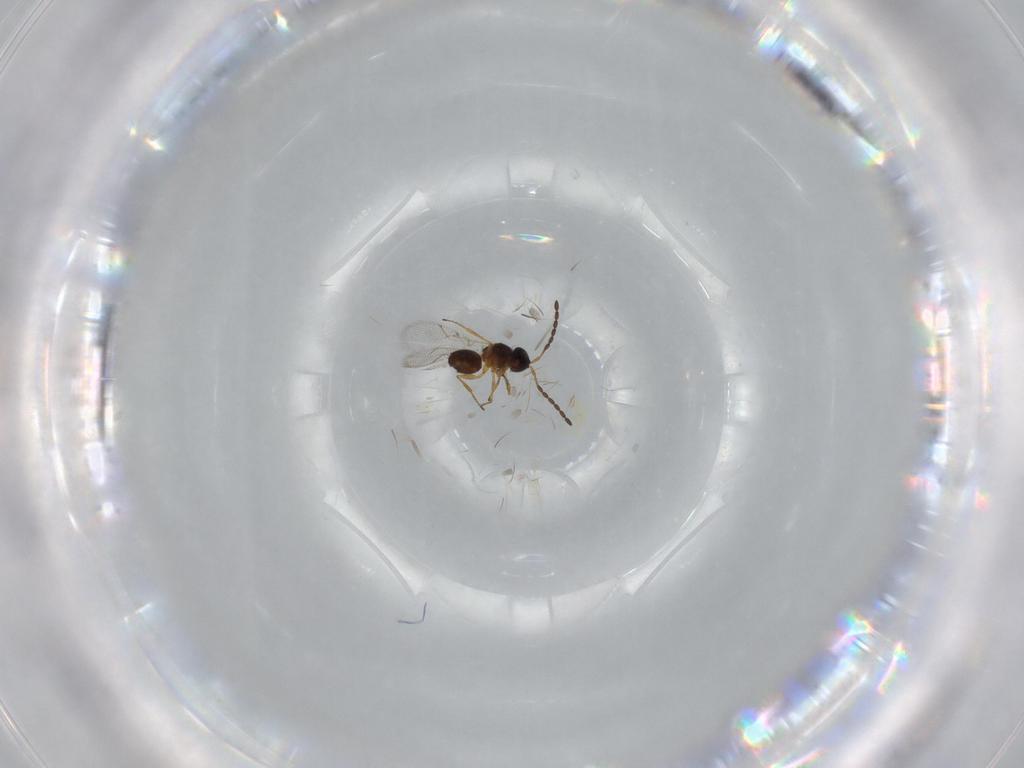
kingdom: Animalia
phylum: Arthropoda
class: Insecta
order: Hymenoptera
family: Figitidae
